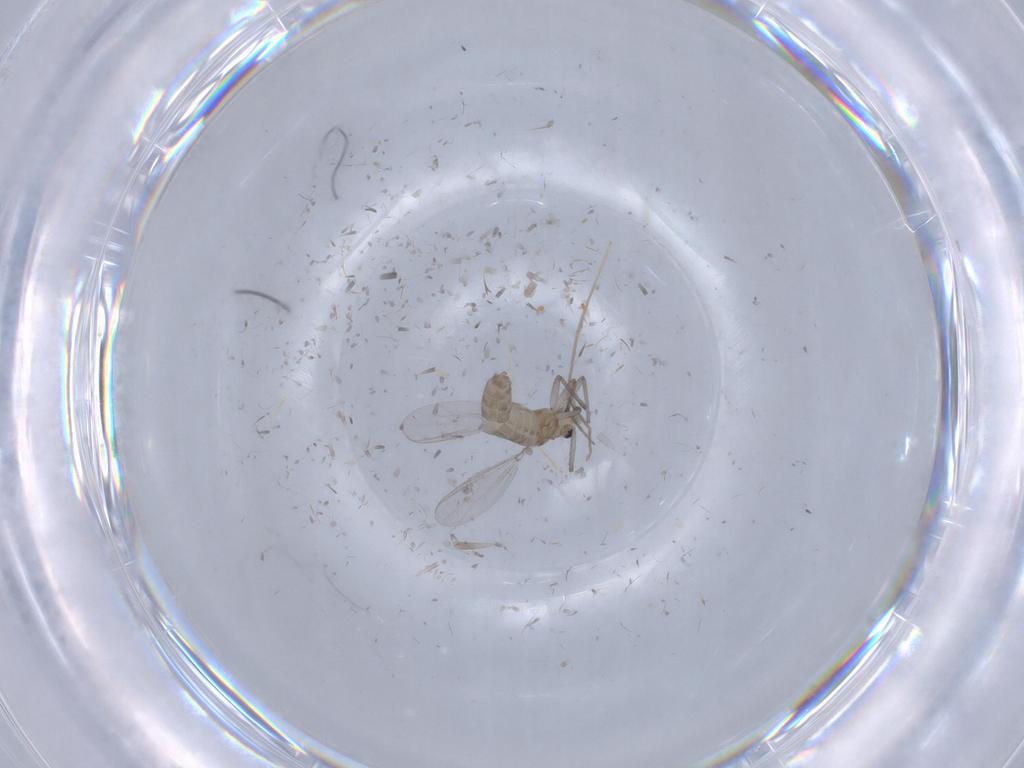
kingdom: Animalia
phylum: Arthropoda
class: Insecta
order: Diptera
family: Chironomidae
